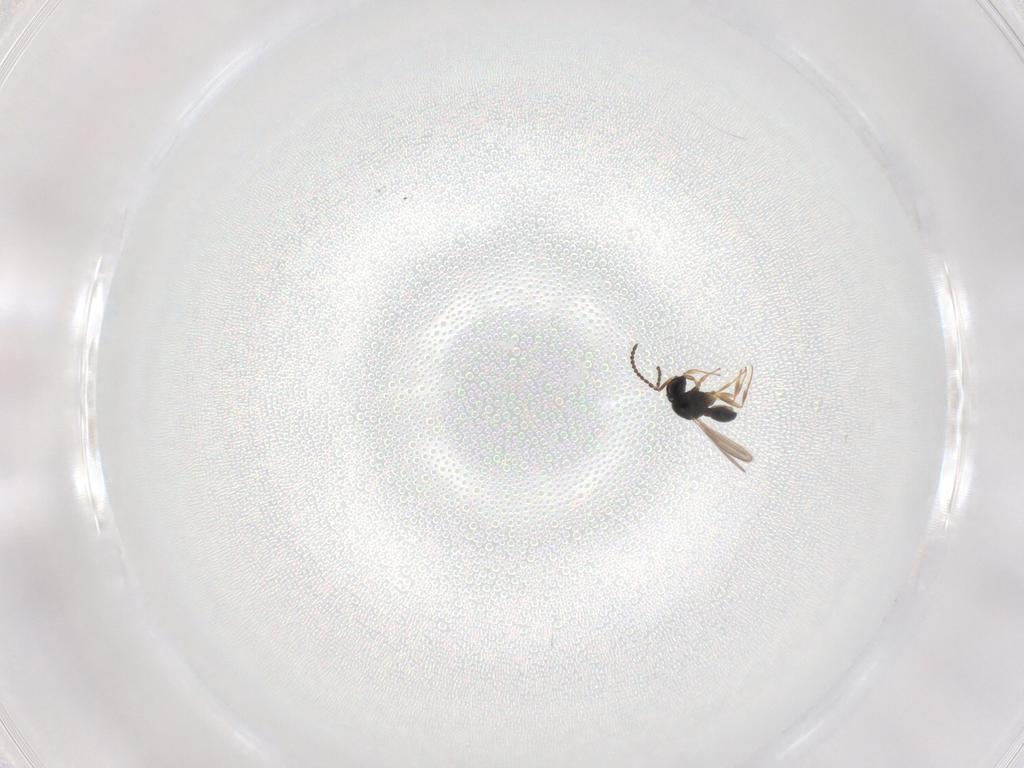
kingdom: Animalia
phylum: Arthropoda
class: Insecta
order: Hymenoptera
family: Scelionidae
